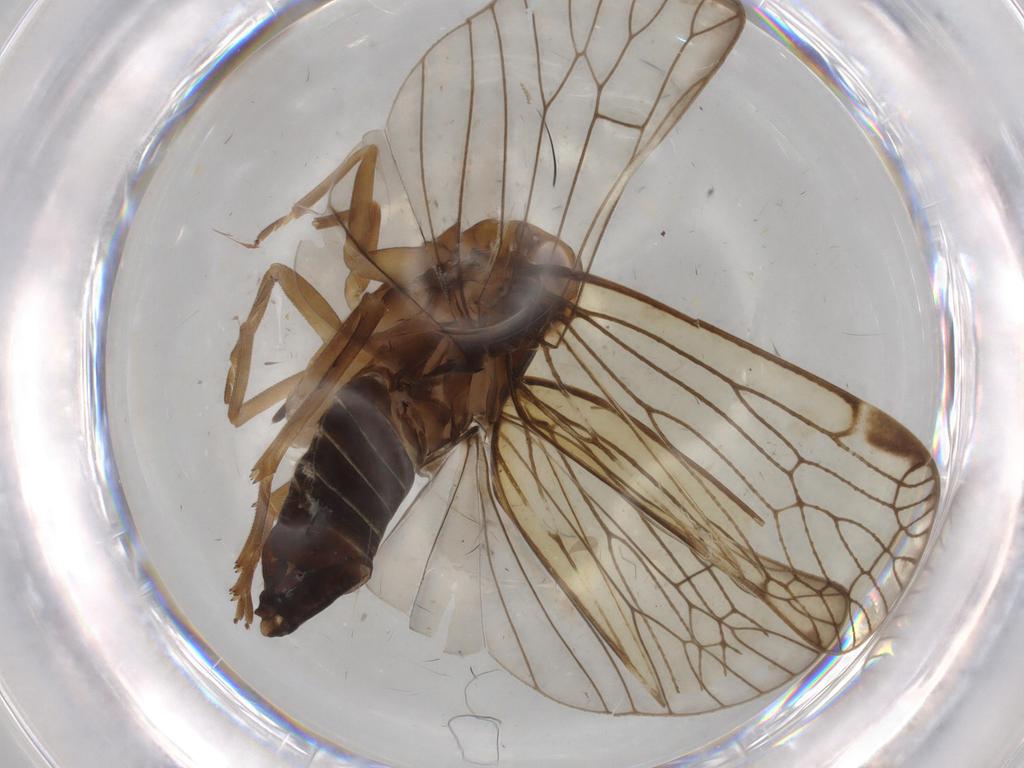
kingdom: Animalia
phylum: Arthropoda
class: Insecta
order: Hemiptera
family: Cixiidae
